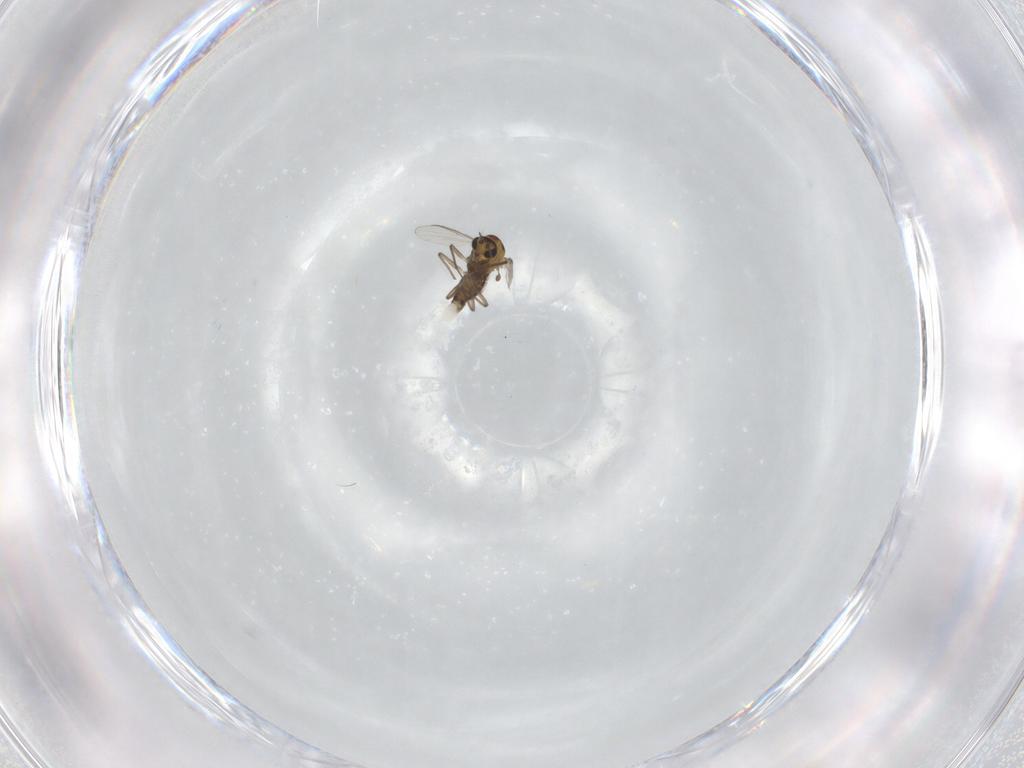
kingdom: Animalia
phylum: Arthropoda
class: Insecta
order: Diptera
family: Chironomidae
